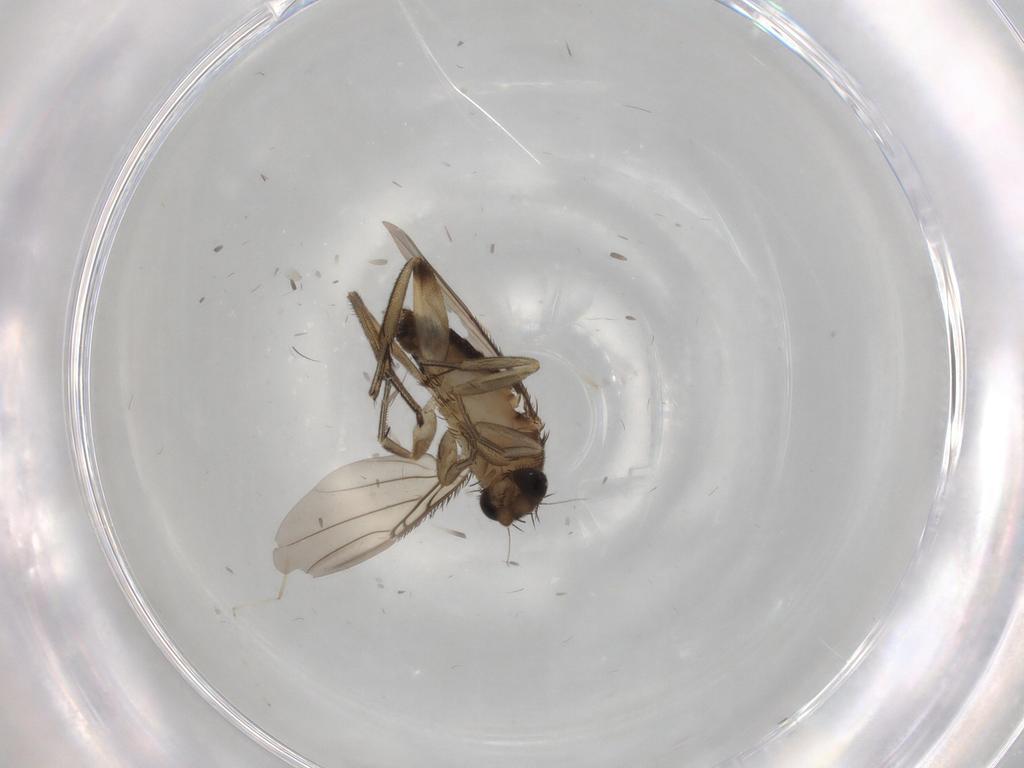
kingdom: Animalia
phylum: Arthropoda
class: Insecta
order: Diptera
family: Phoridae
